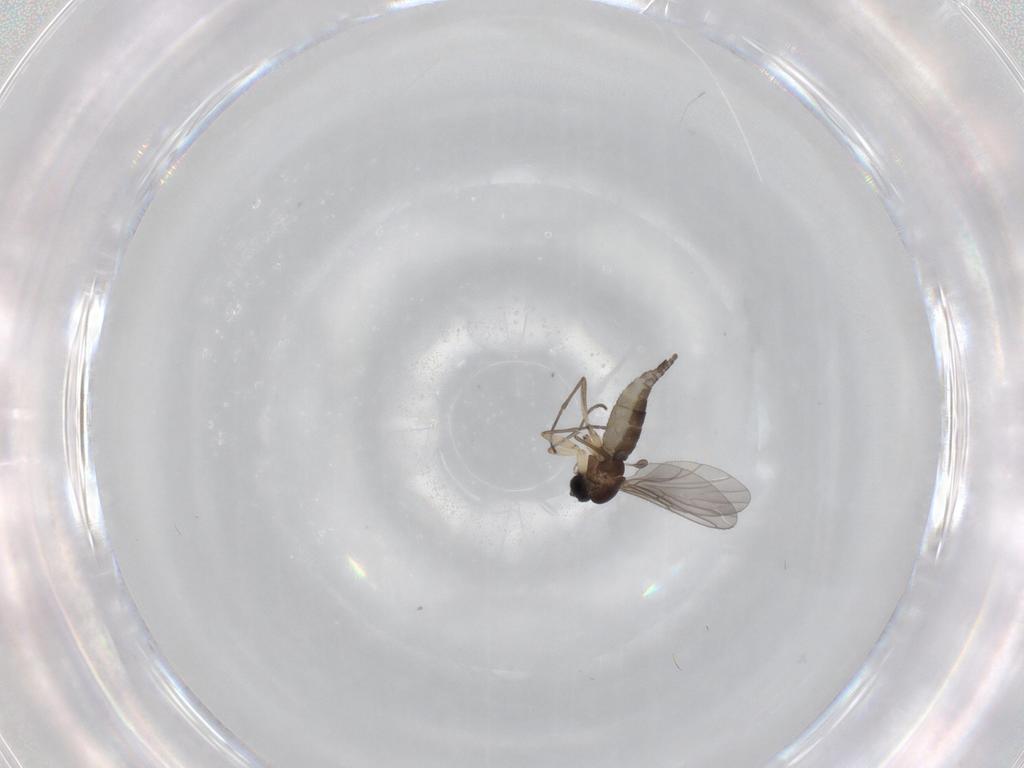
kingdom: Animalia
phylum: Arthropoda
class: Insecta
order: Diptera
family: Sciaridae
